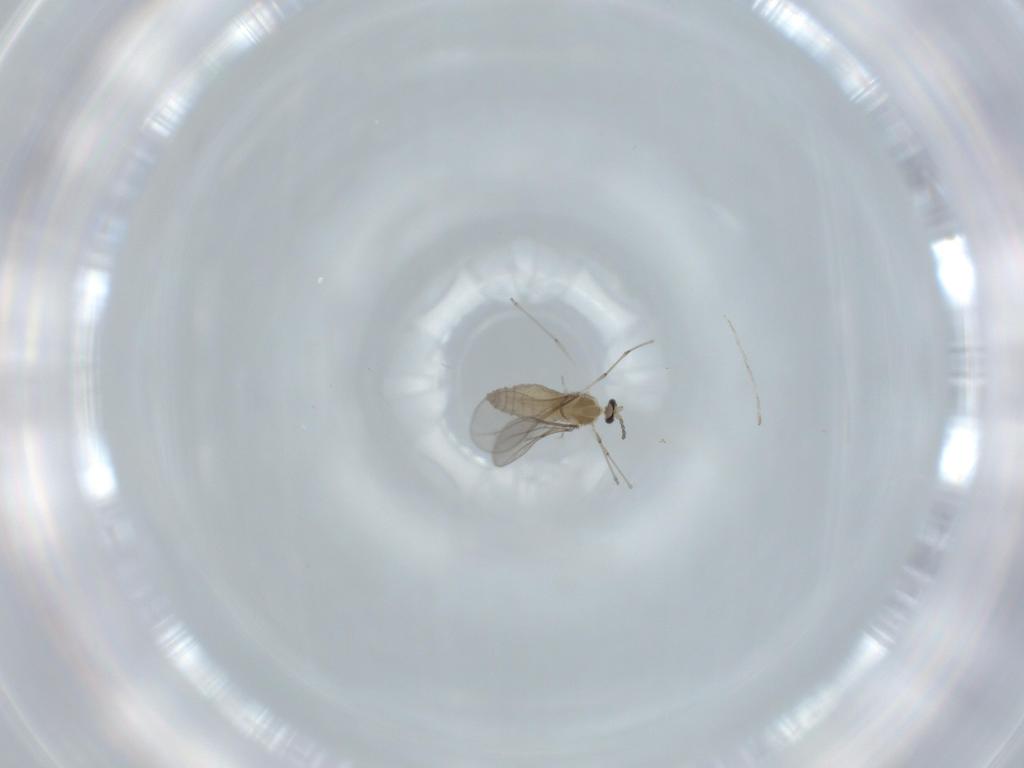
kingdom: Animalia
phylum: Arthropoda
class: Insecta
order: Diptera
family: Cecidomyiidae
